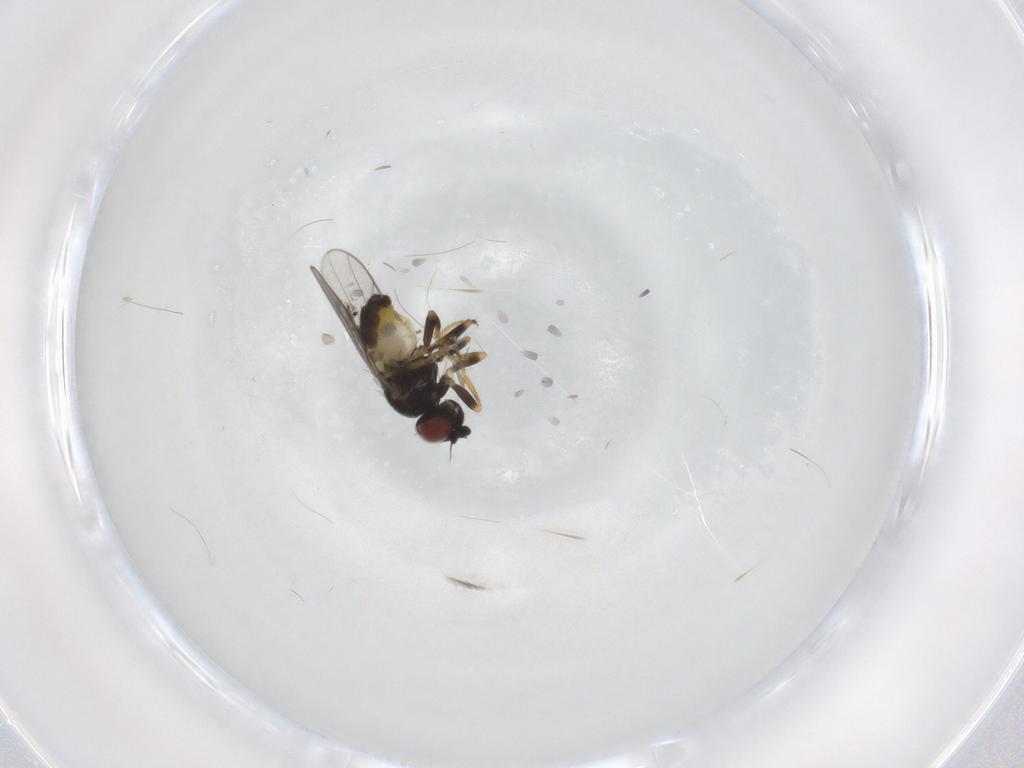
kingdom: Animalia
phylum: Arthropoda
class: Insecta
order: Diptera
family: Chloropidae
